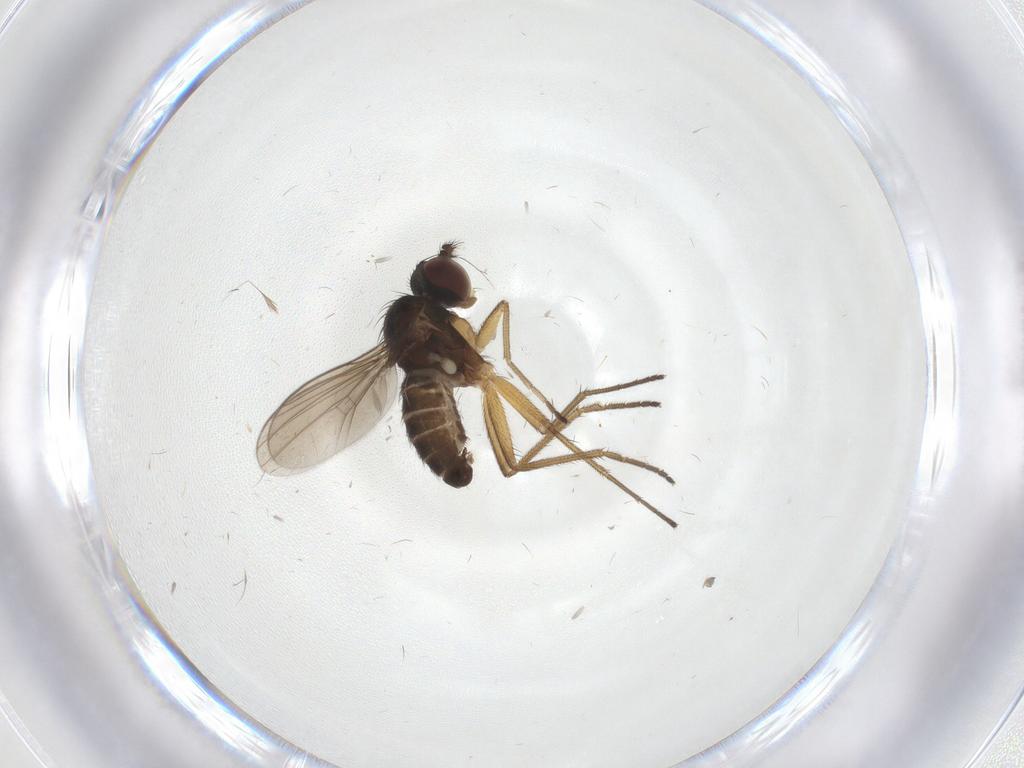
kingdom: Animalia
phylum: Arthropoda
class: Insecta
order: Diptera
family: Dolichopodidae
